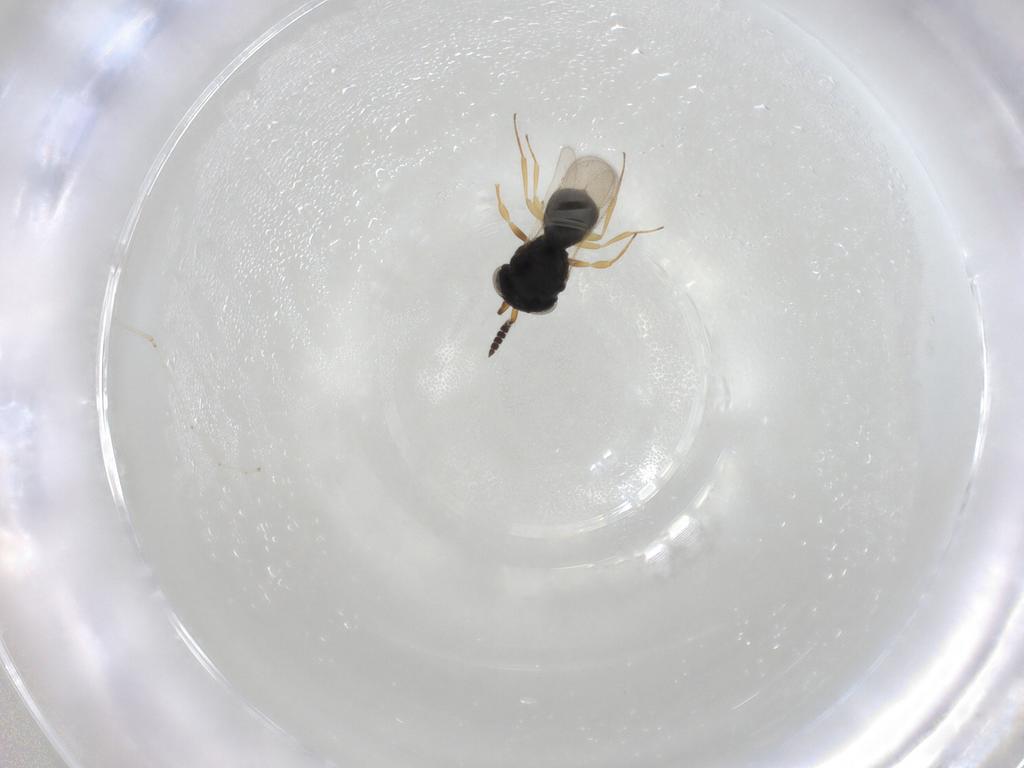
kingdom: Animalia
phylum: Arthropoda
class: Insecta
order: Hymenoptera
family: Scelionidae
